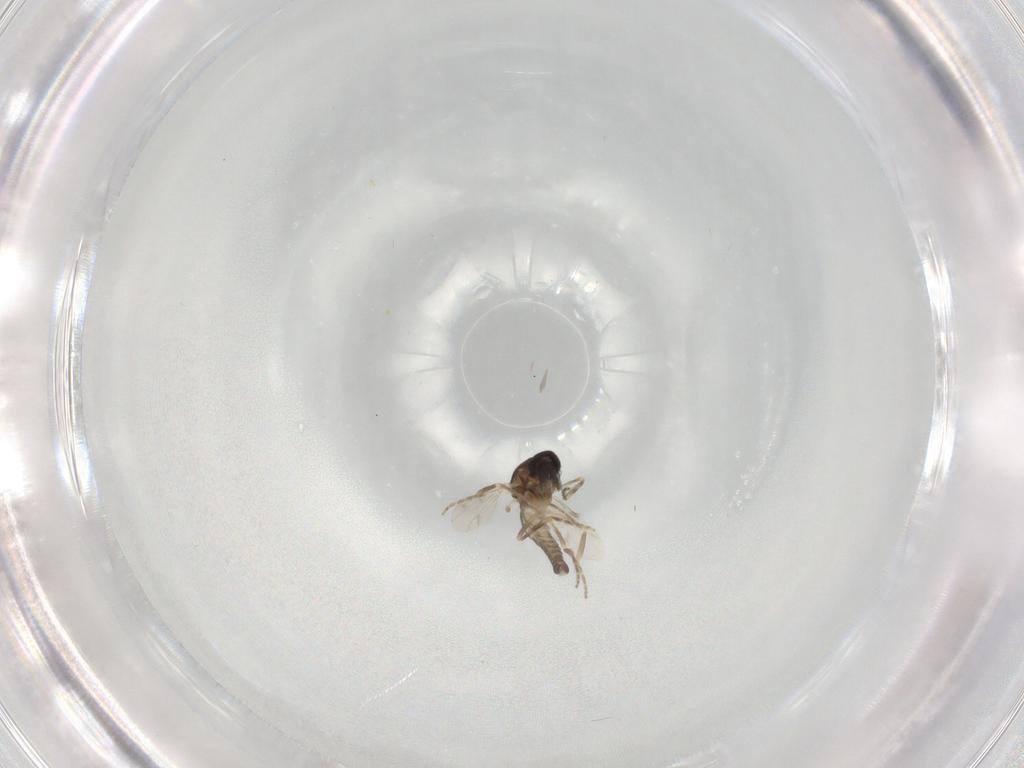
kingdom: Animalia
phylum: Arthropoda
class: Insecta
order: Diptera
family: Ceratopogonidae
